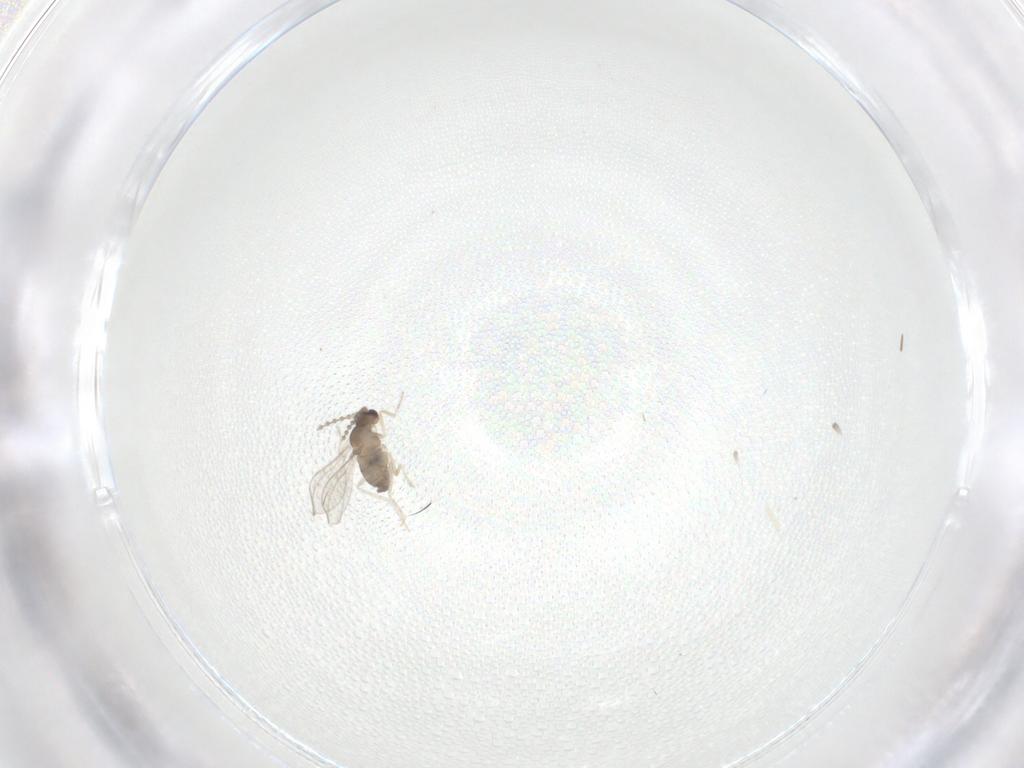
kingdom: Animalia
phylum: Arthropoda
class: Insecta
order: Diptera
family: Cecidomyiidae
